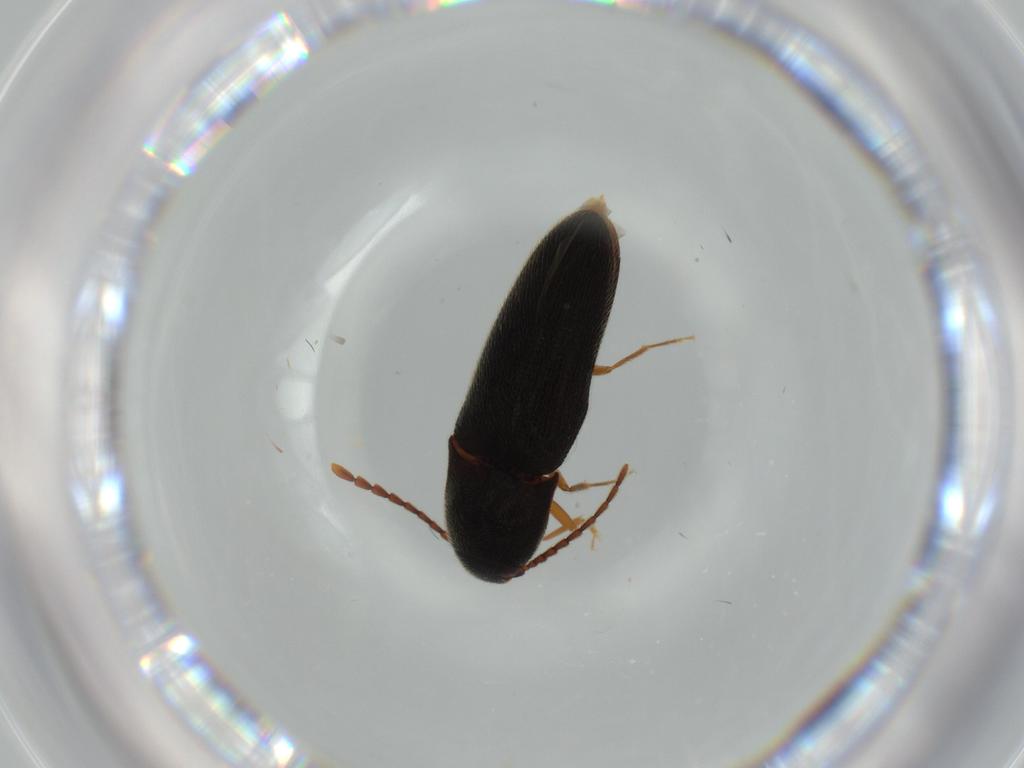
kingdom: Animalia
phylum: Arthropoda
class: Insecta
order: Coleoptera
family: Elateridae
